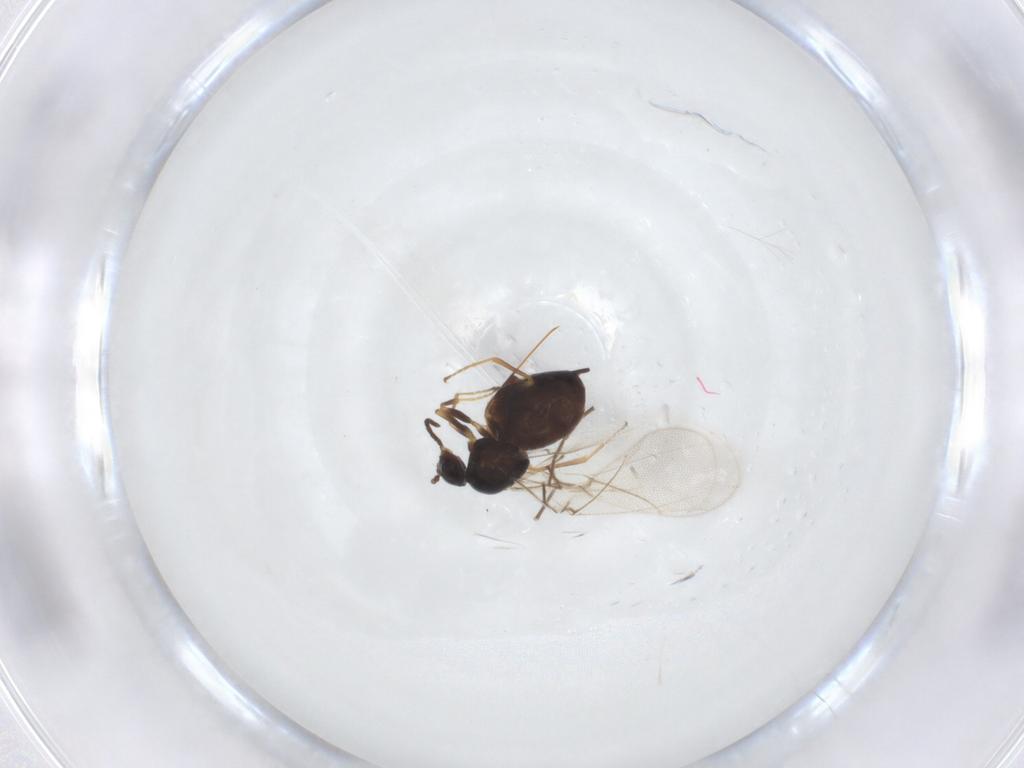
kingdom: Animalia
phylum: Arthropoda
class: Insecta
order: Hymenoptera
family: Cynipidae
